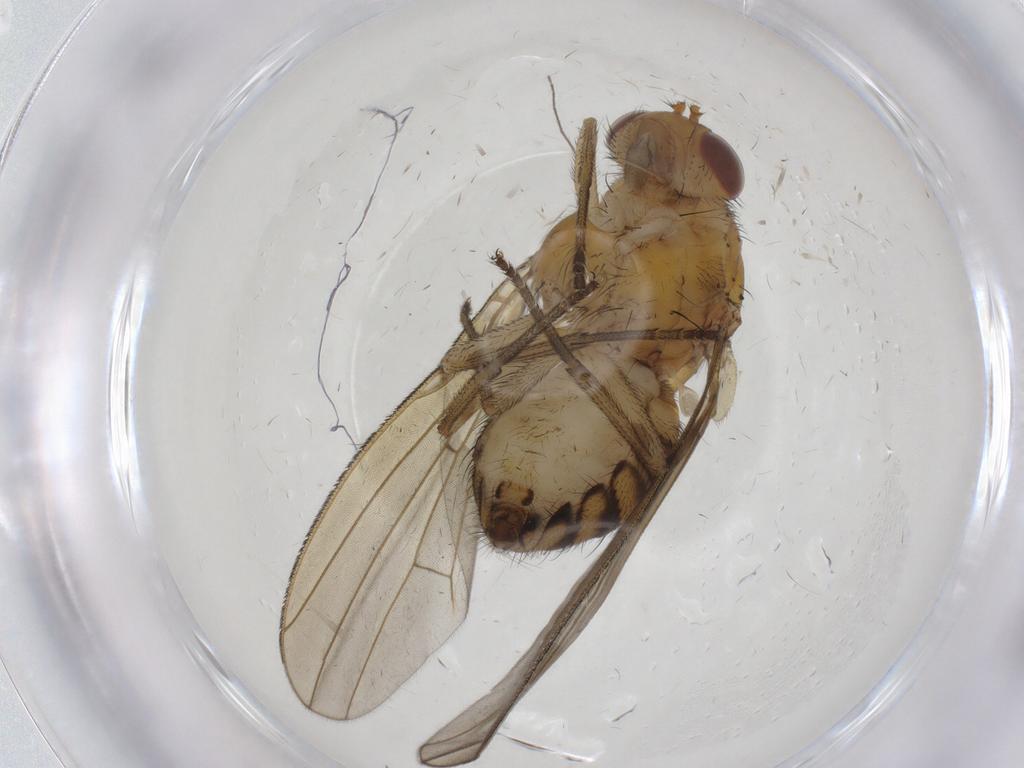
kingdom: Animalia
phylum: Arthropoda
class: Insecta
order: Diptera
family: Chironomidae
